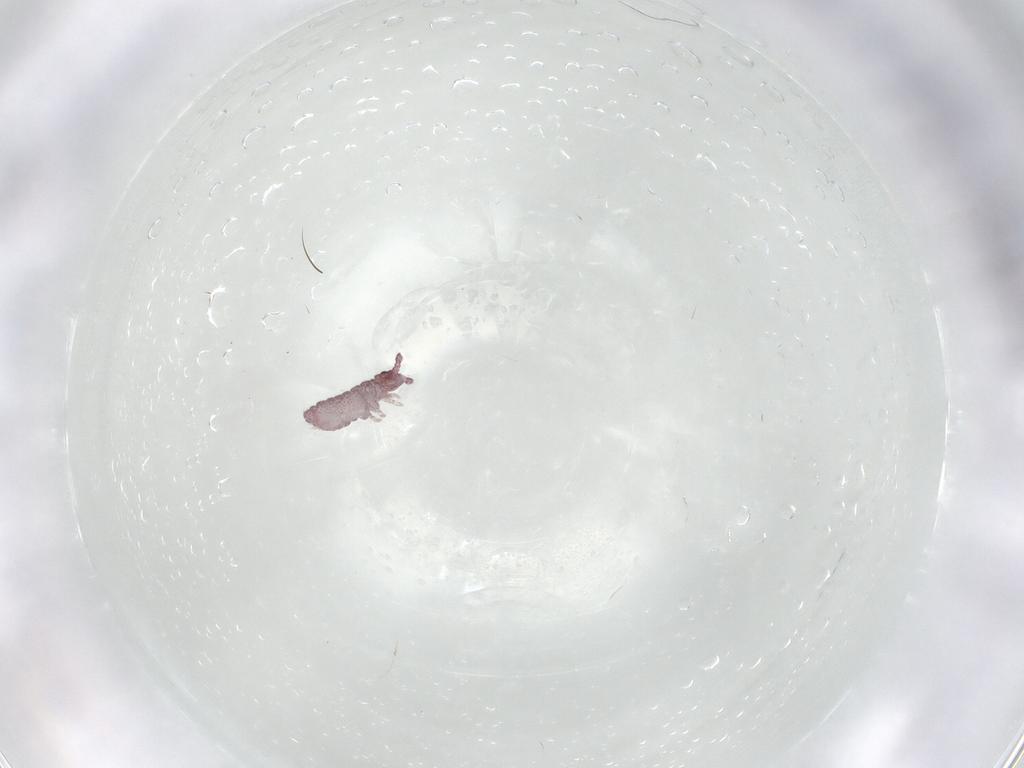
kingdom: Animalia
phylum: Arthropoda
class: Collembola
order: Poduromorpha
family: Hypogastruridae
